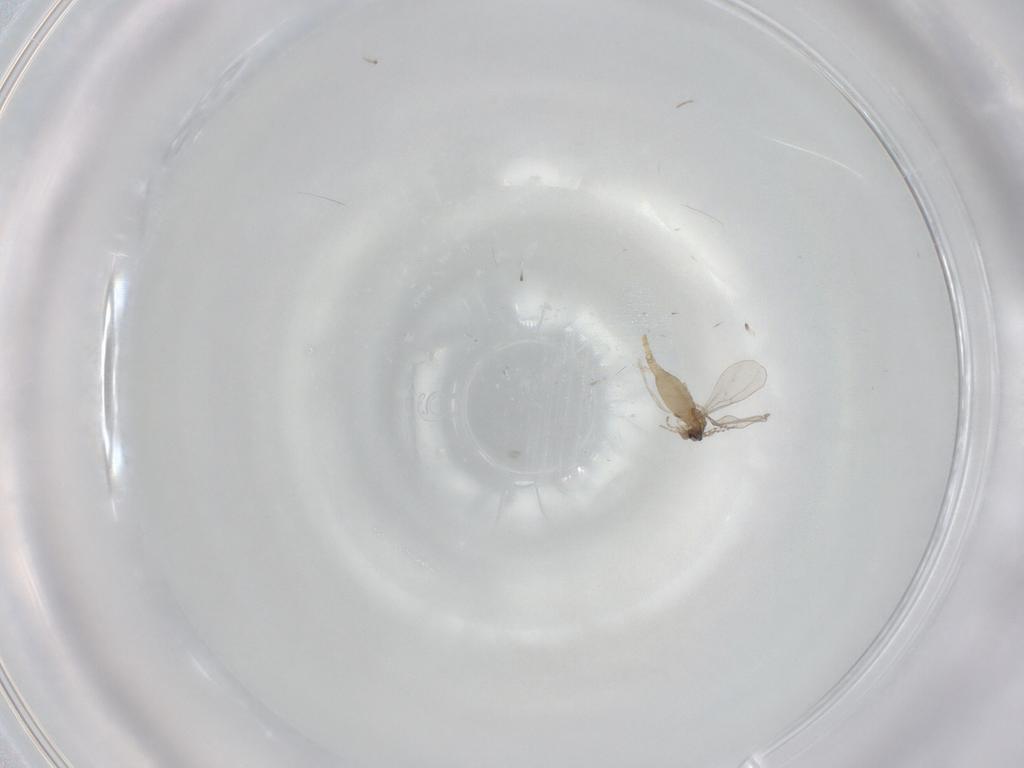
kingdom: Animalia
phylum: Arthropoda
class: Insecta
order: Diptera
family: Cecidomyiidae
